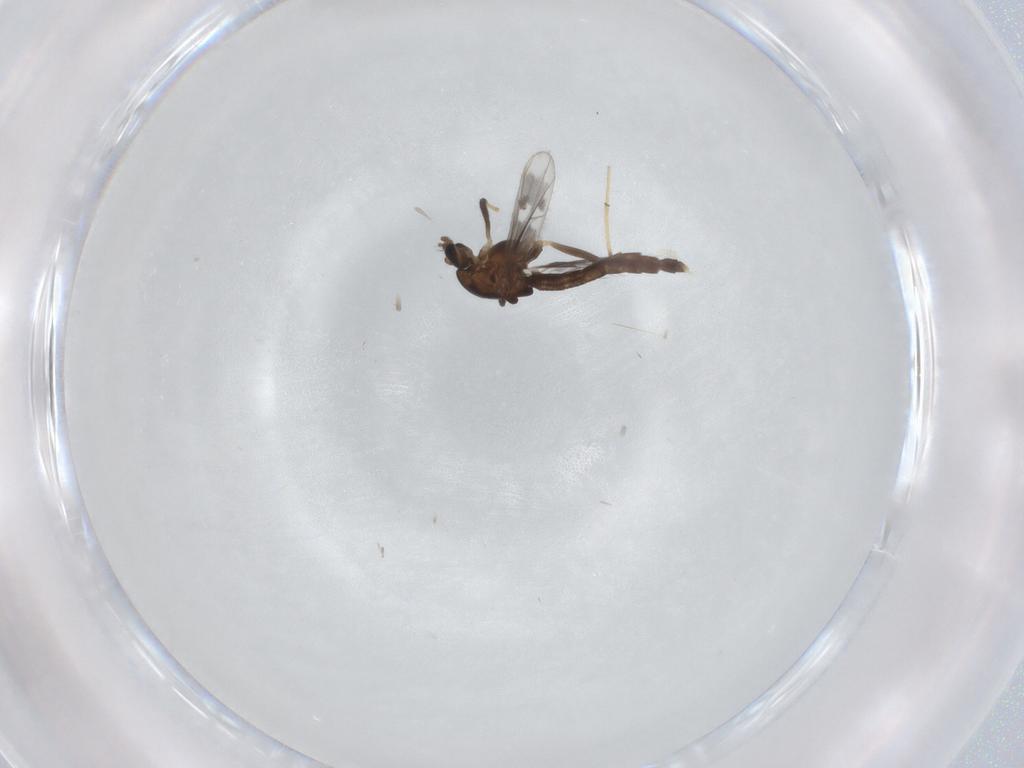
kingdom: Animalia
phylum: Arthropoda
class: Insecta
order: Diptera
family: Chironomidae
